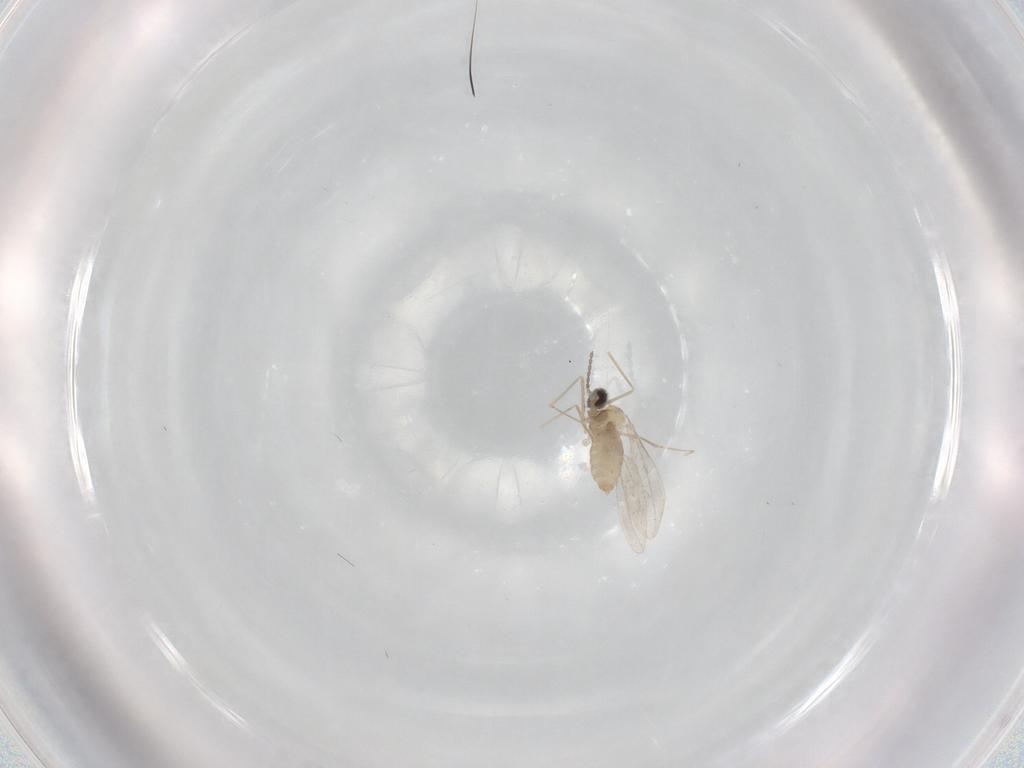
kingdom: Animalia
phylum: Arthropoda
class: Insecta
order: Diptera
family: Cecidomyiidae
